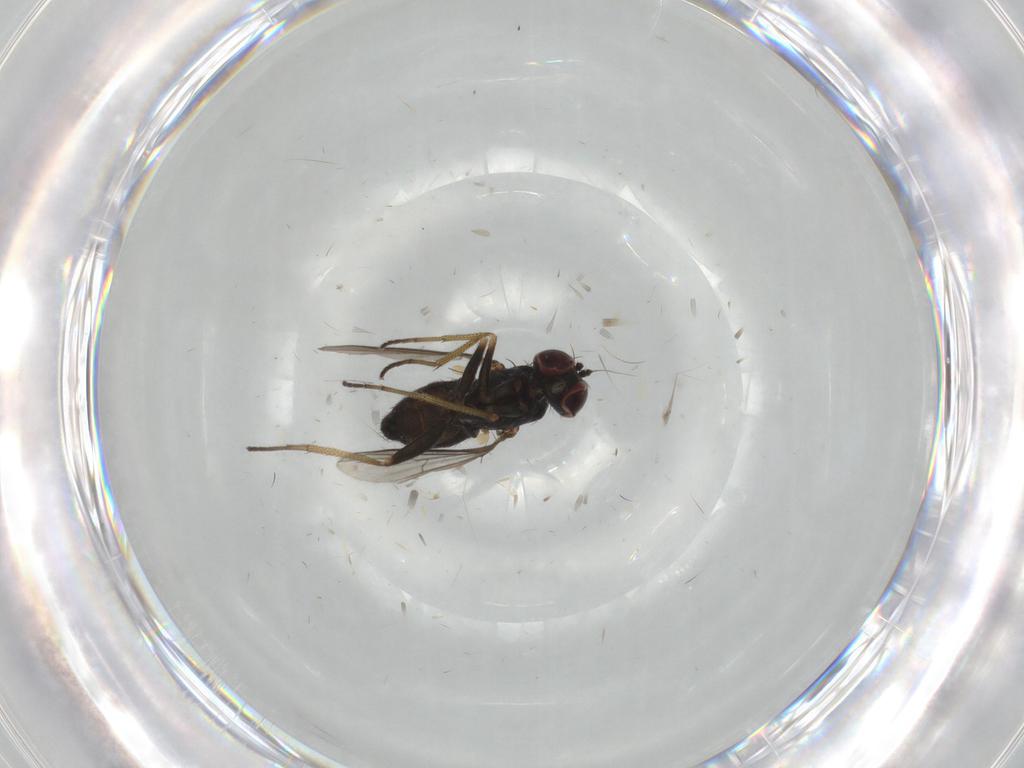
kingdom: Animalia
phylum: Arthropoda
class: Insecta
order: Diptera
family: Dolichopodidae
